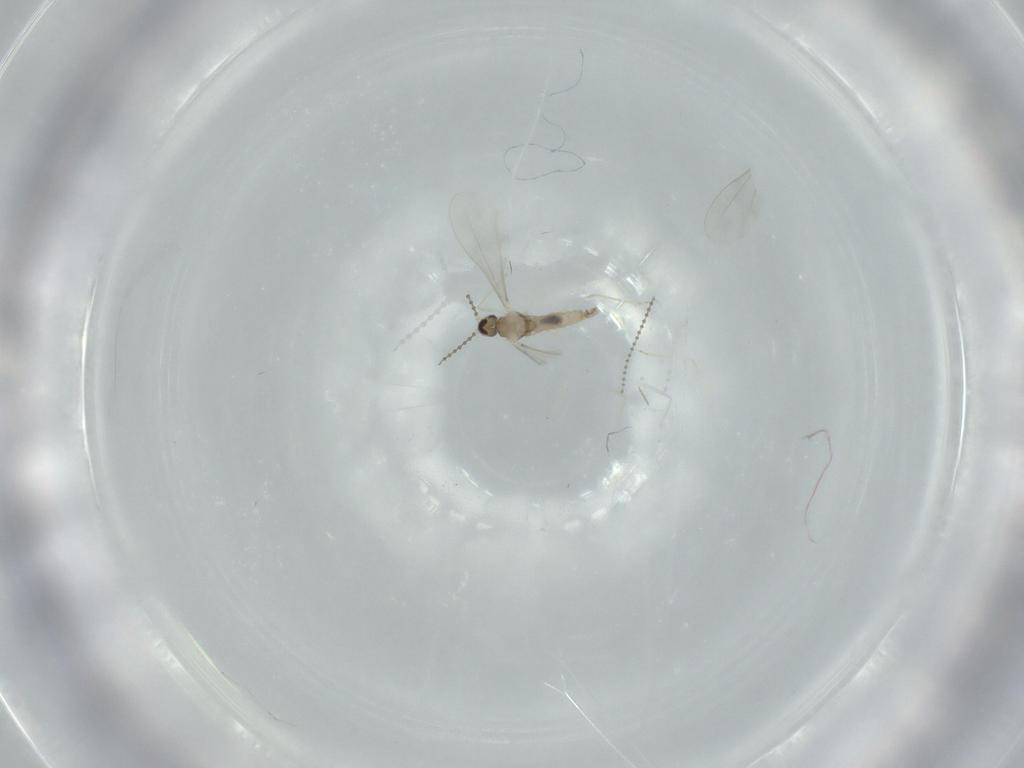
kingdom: Animalia
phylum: Arthropoda
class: Insecta
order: Diptera
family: Cecidomyiidae
